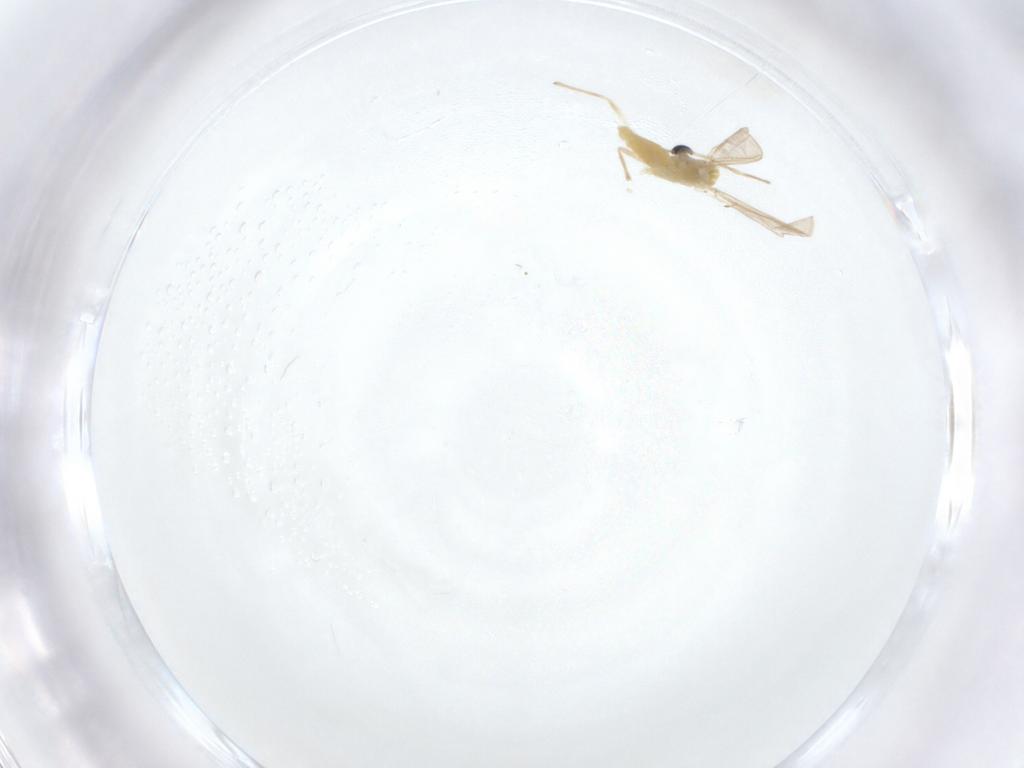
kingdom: Animalia
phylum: Arthropoda
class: Insecta
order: Diptera
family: Chironomidae
